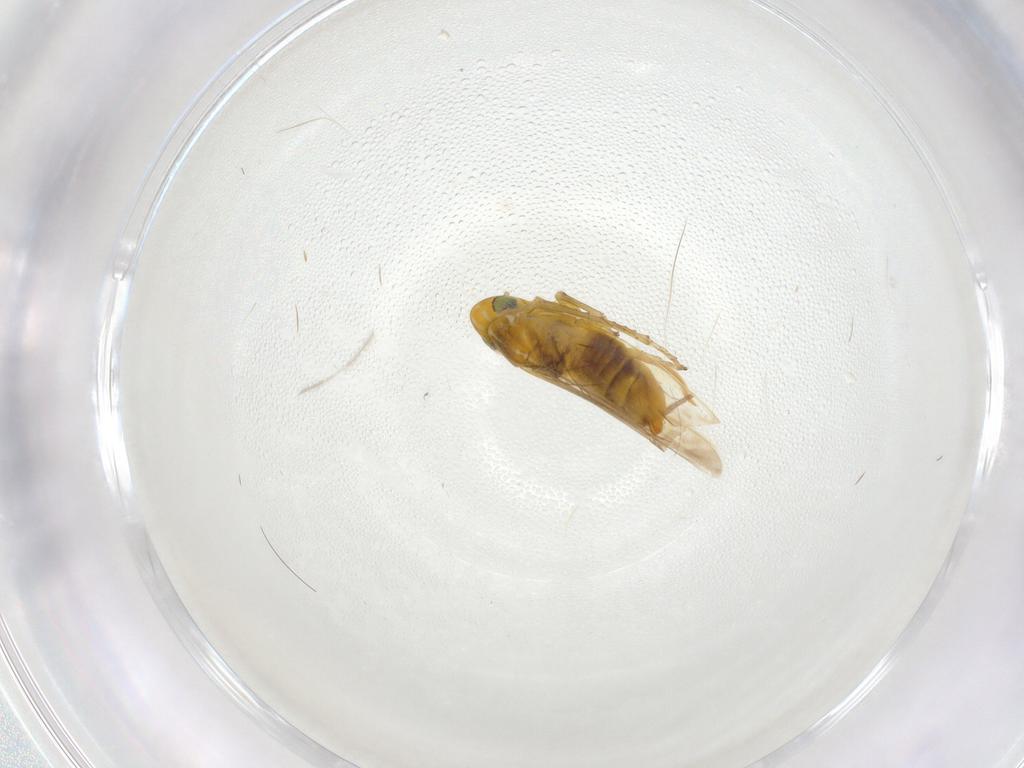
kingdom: Animalia
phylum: Arthropoda
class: Insecta
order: Hemiptera
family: Cicadellidae
